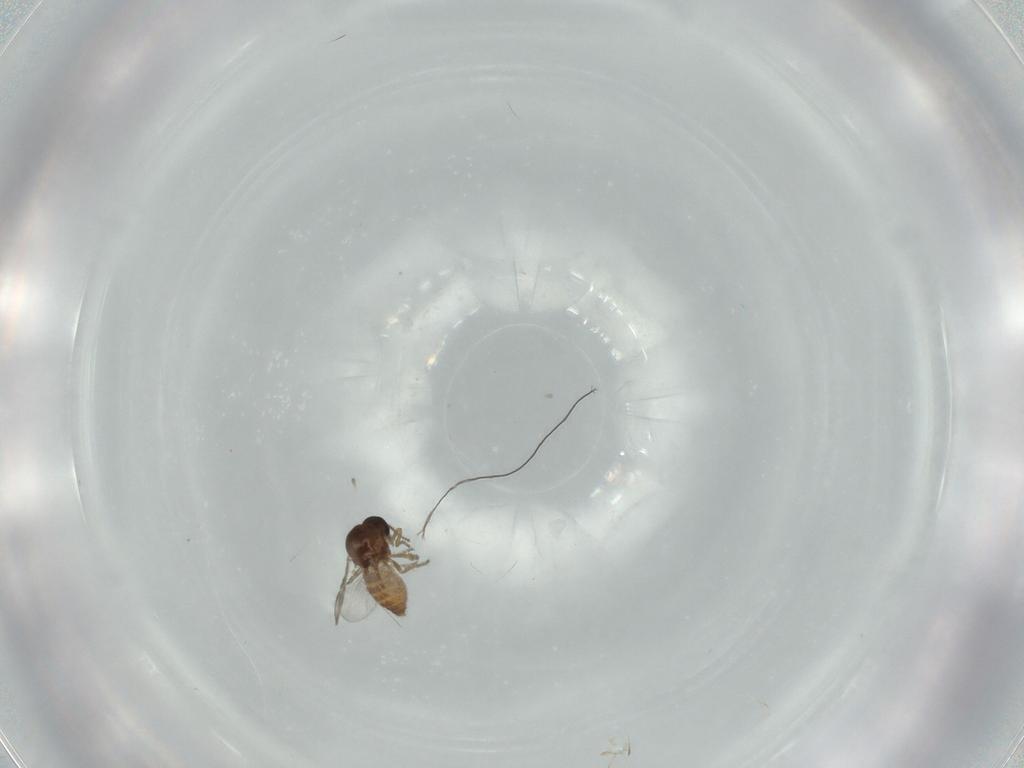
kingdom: Animalia
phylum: Arthropoda
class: Insecta
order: Diptera
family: Ceratopogonidae
